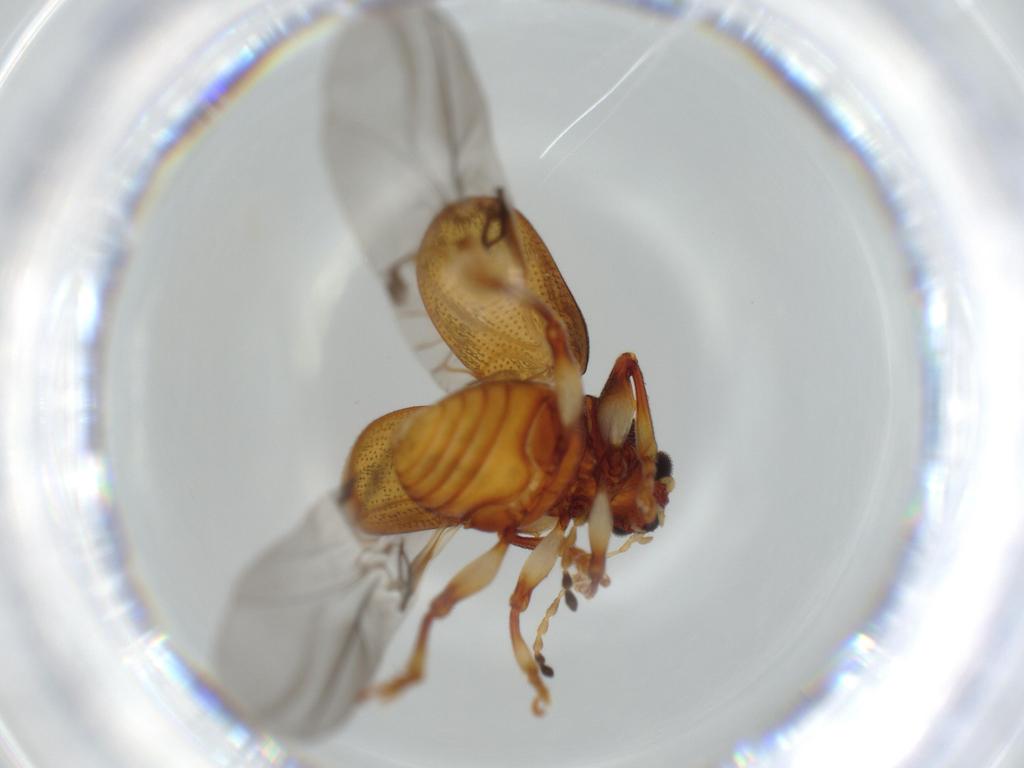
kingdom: Animalia
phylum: Arthropoda
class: Insecta
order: Coleoptera
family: Chrysomelidae
